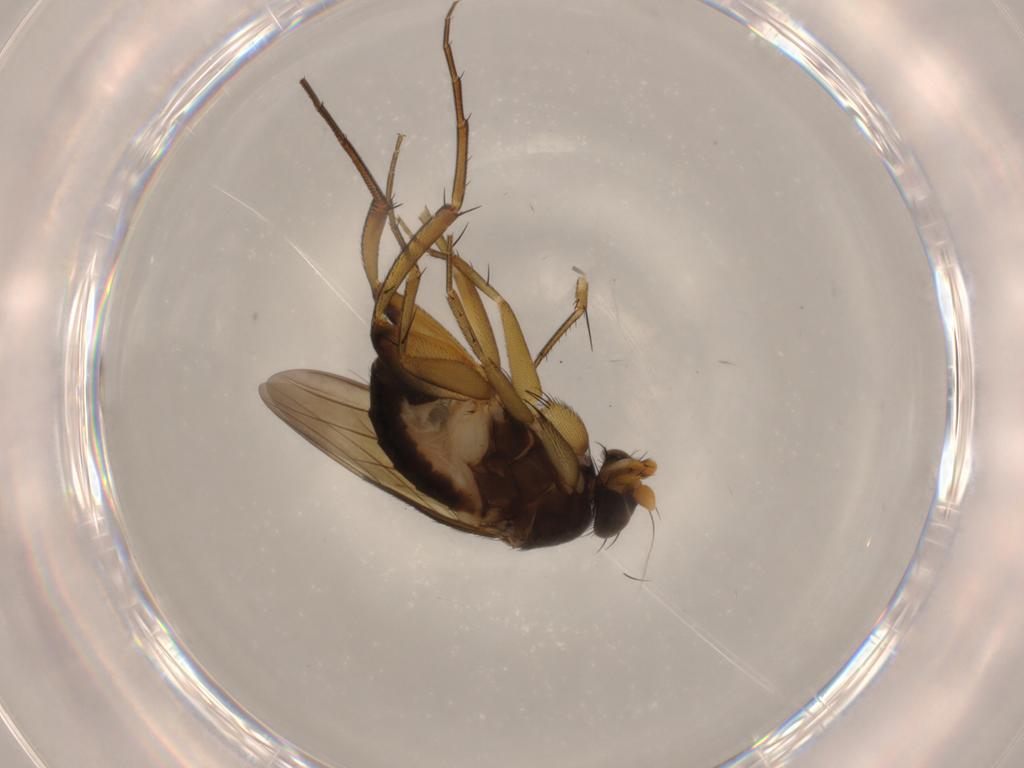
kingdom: Animalia
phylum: Arthropoda
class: Insecta
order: Diptera
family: Phoridae
